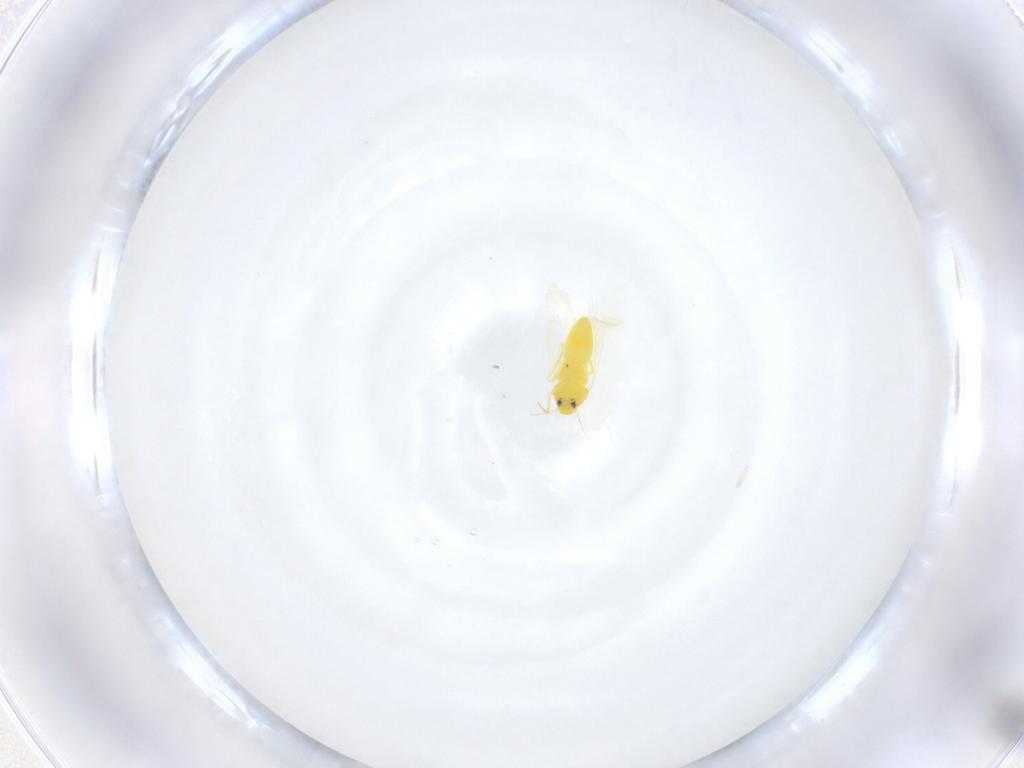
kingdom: Animalia
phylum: Arthropoda
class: Insecta
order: Hemiptera
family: Aleyrodidae
